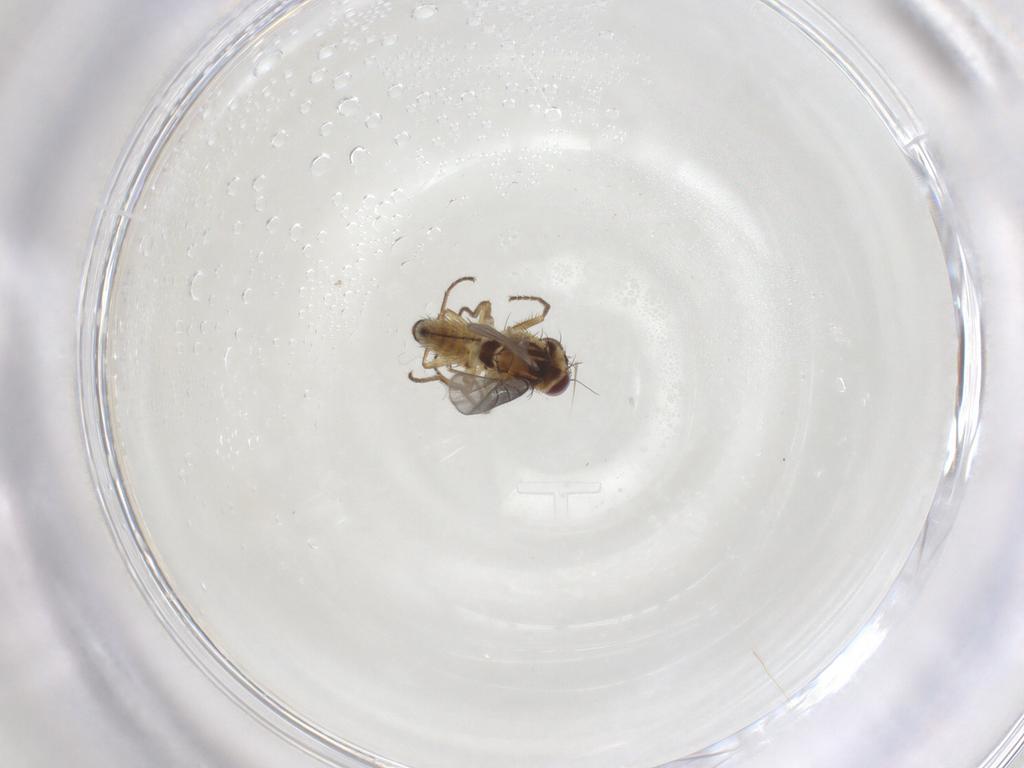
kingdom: Animalia
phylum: Arthropoda
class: Insecta
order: Diptera
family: Agromyzidae
